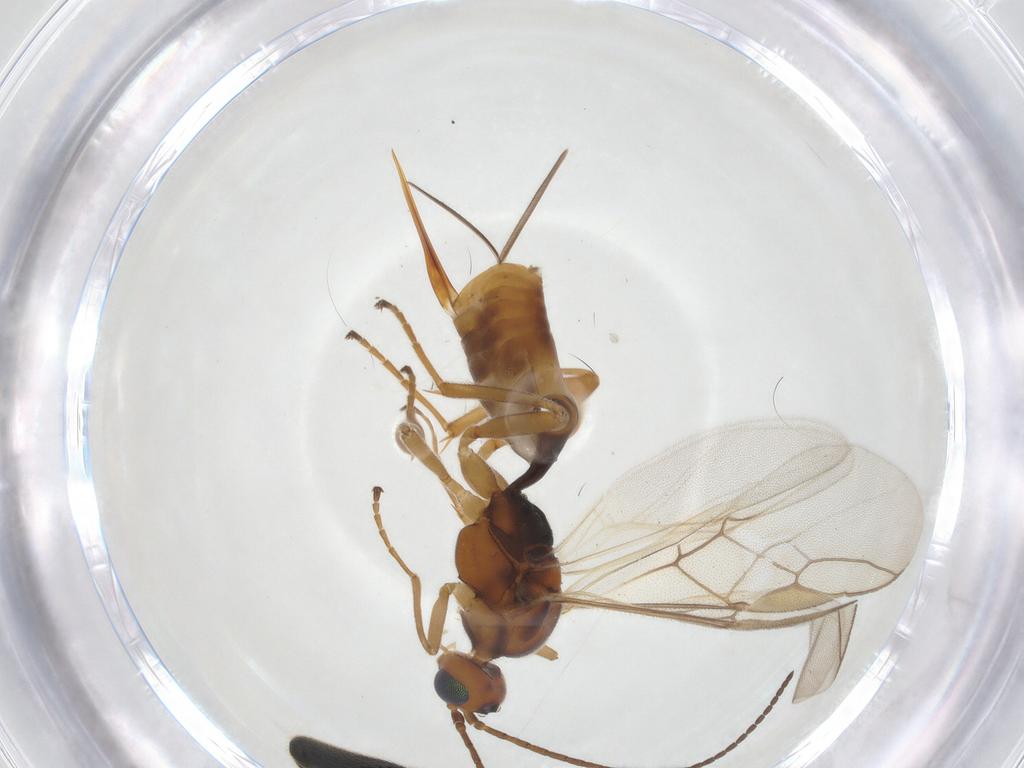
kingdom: Animalia
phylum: Arthropoda
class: Insecta
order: Hymenoptera
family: Braconidae
